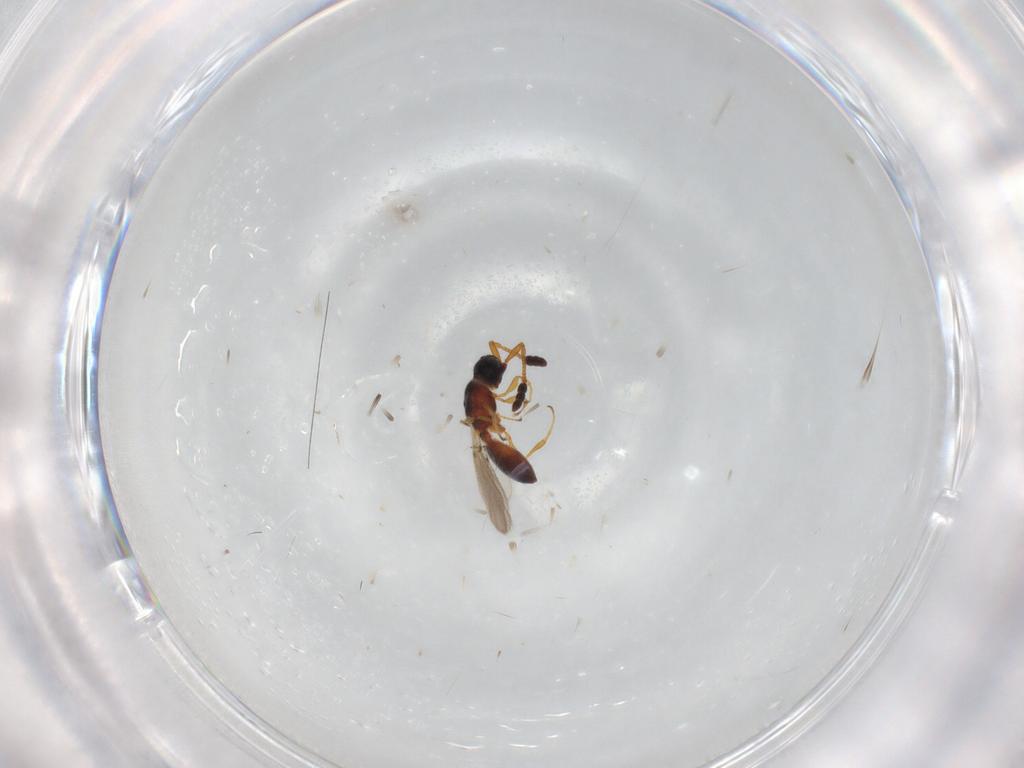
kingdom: Animalia
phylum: Arthropoda
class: Insecta
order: Hymenoptera
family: Diapriidae
